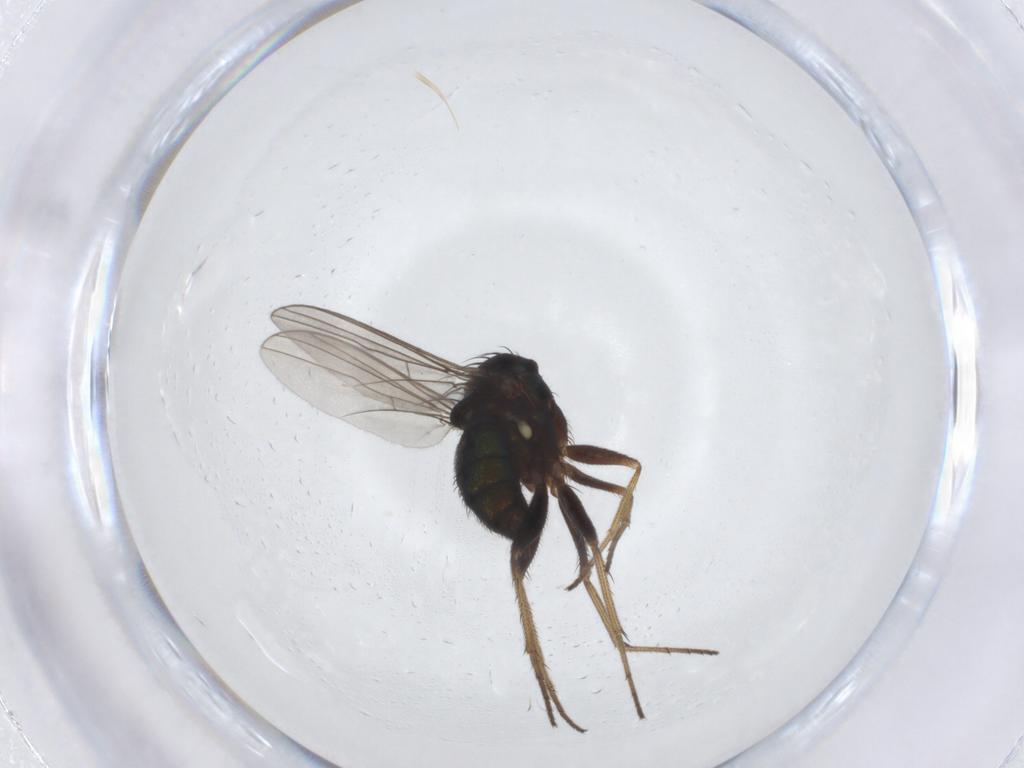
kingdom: Animalia
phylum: Arthropoda
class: Insecta
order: Diptera
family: Dolichopodidae
